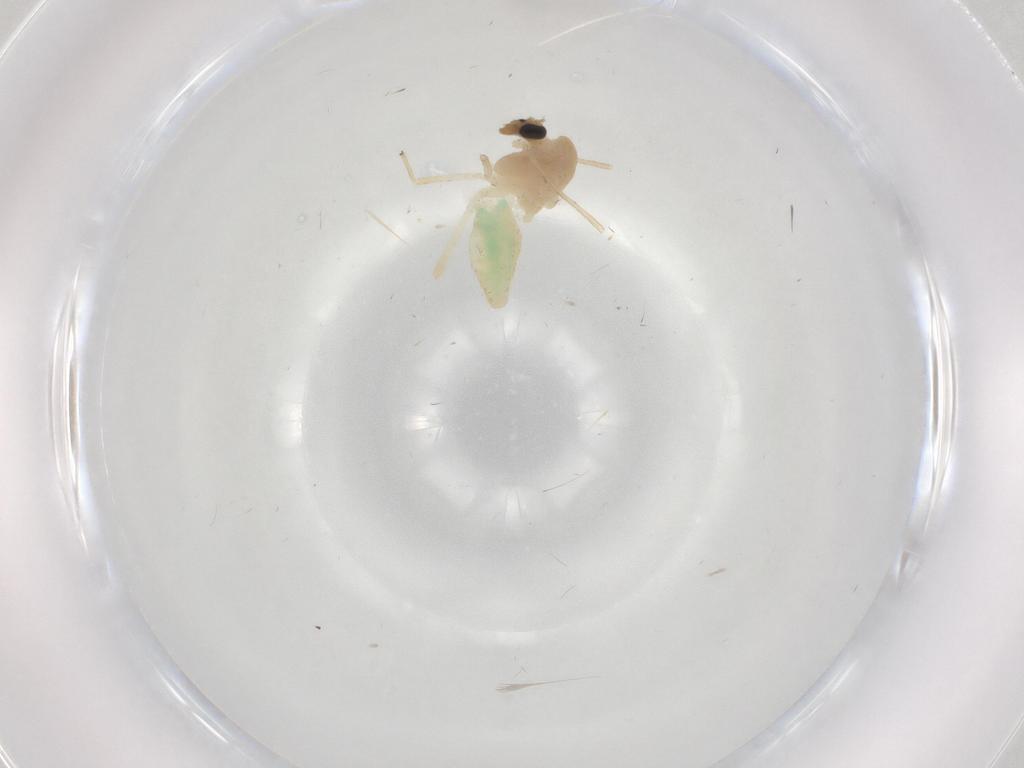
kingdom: Animalia
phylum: Arthropoda
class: Insecta
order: Diptera
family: Chironomidae
